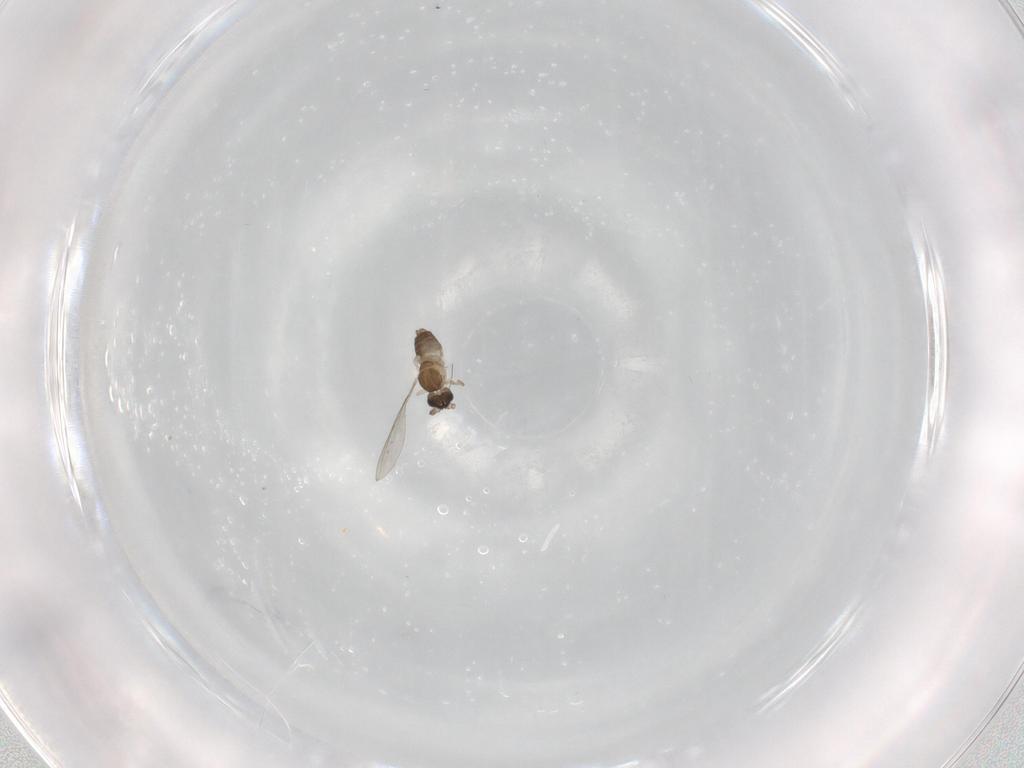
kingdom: Animalia
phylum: Arthropoda
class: Insecta
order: Diptera
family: Cecidomyiidae
